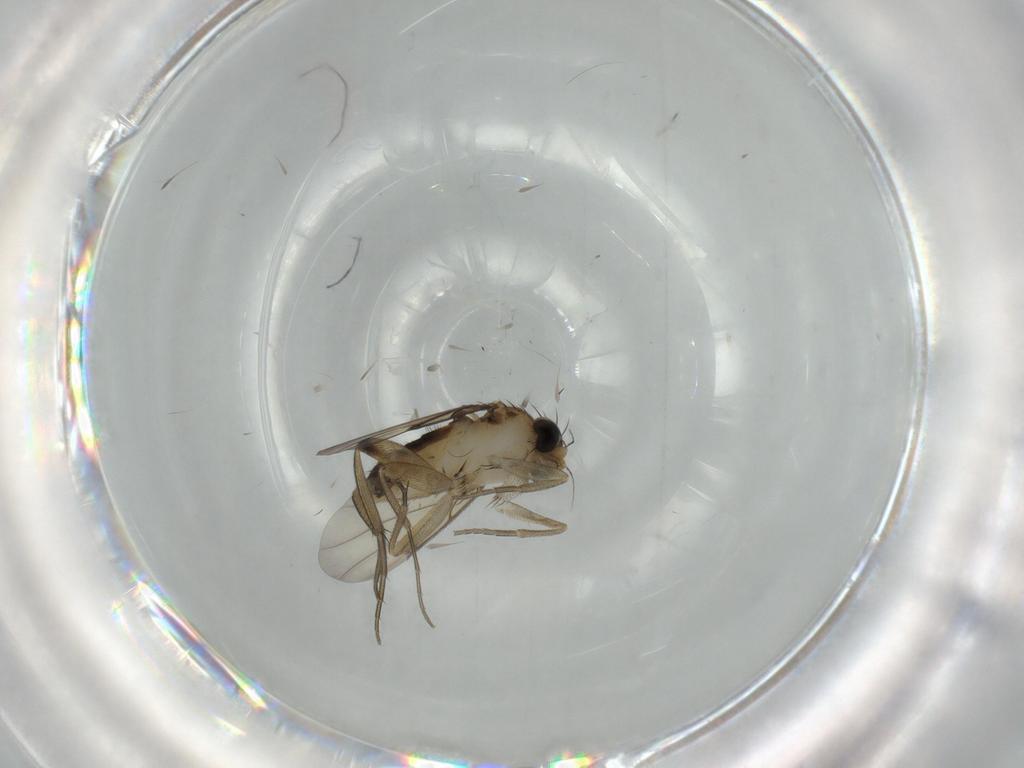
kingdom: Animalia
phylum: Arthropoda
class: Insecta
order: Diptera
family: Phoridae
